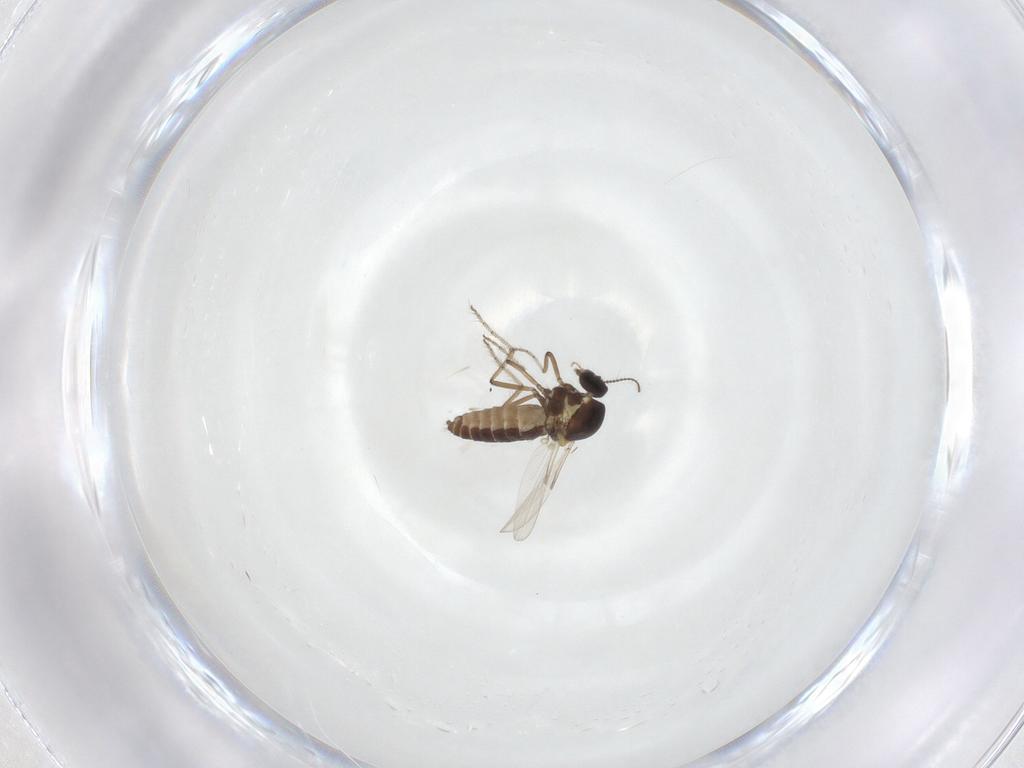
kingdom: Animalia
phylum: Arthropoda
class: Insecta
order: Diptera
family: Ceratopogonidae
